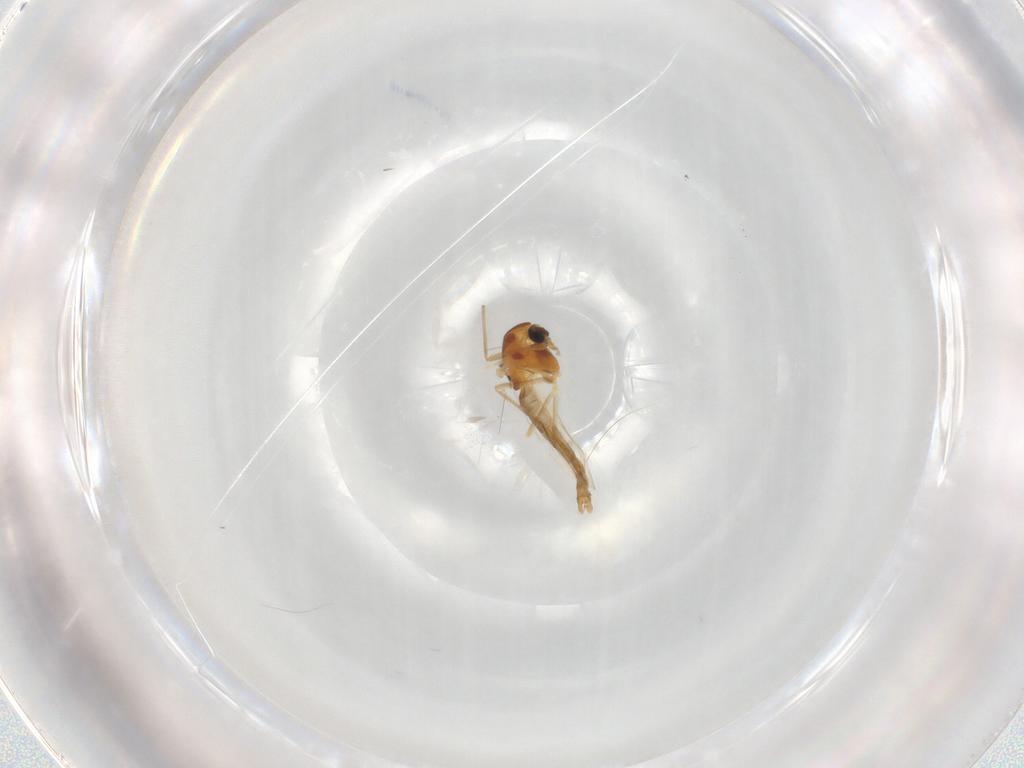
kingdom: Animalia
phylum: Arthropoda
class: Insecta
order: Diptera
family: Chironomidae
